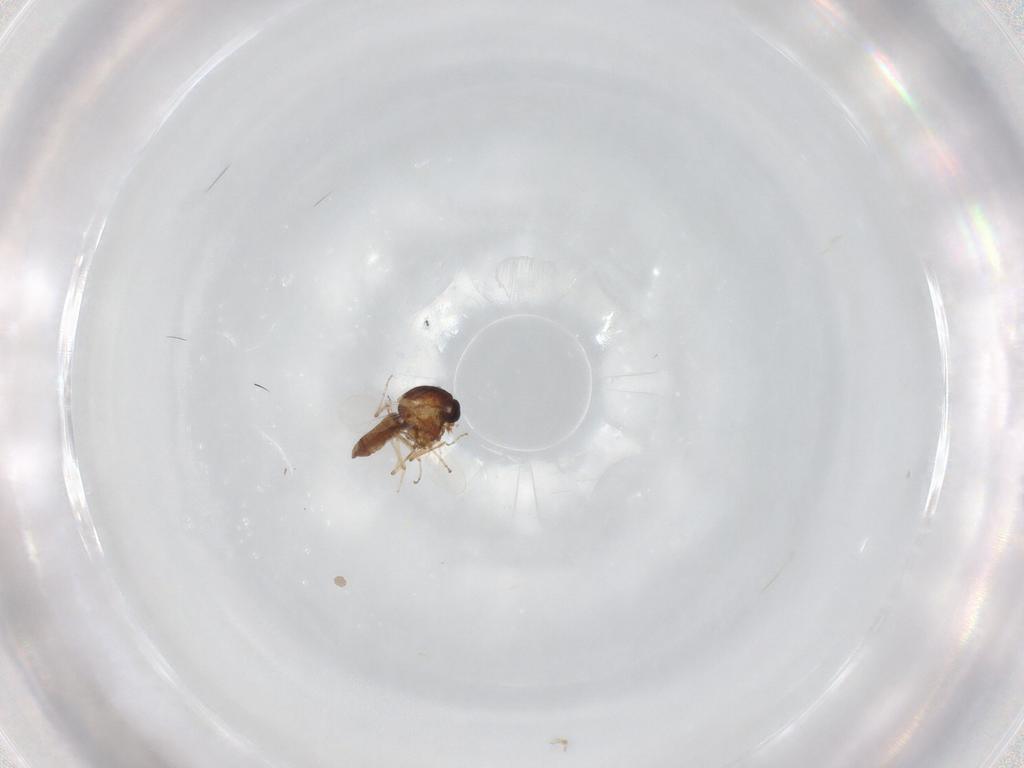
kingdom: Animalia
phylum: Arthropoda
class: Insecta
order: Diptera
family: Ceratopogonidae
